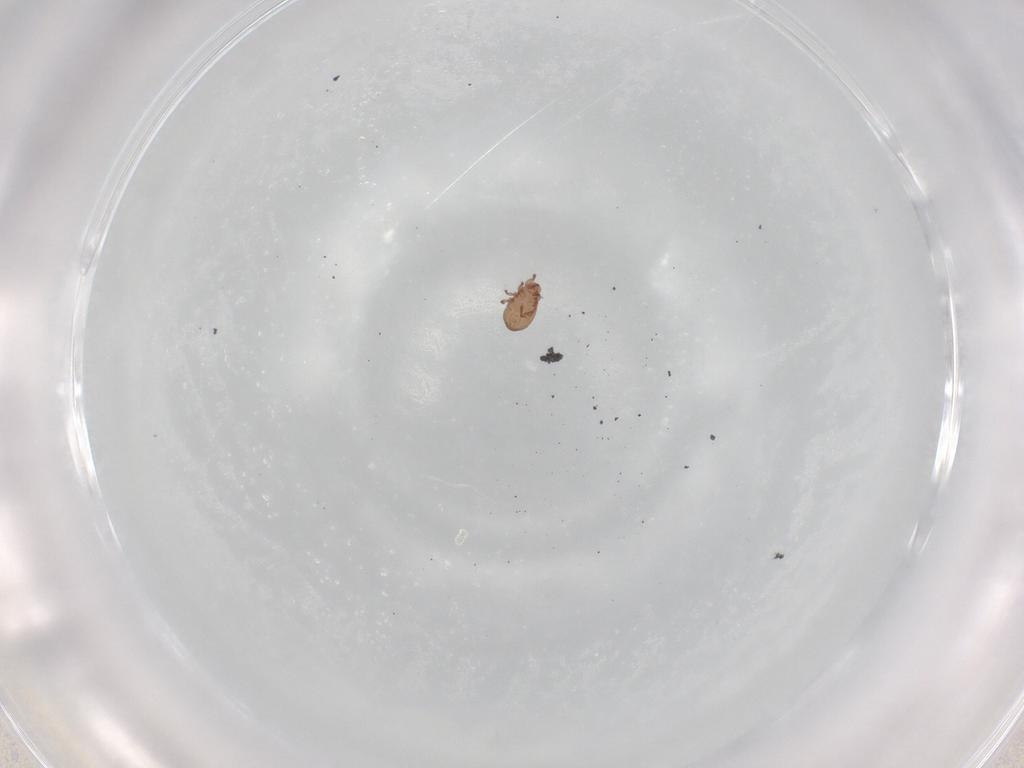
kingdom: Animalia
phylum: Arthropoda
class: Arachnida
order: Sarcoptiformes
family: Eremaeidae
